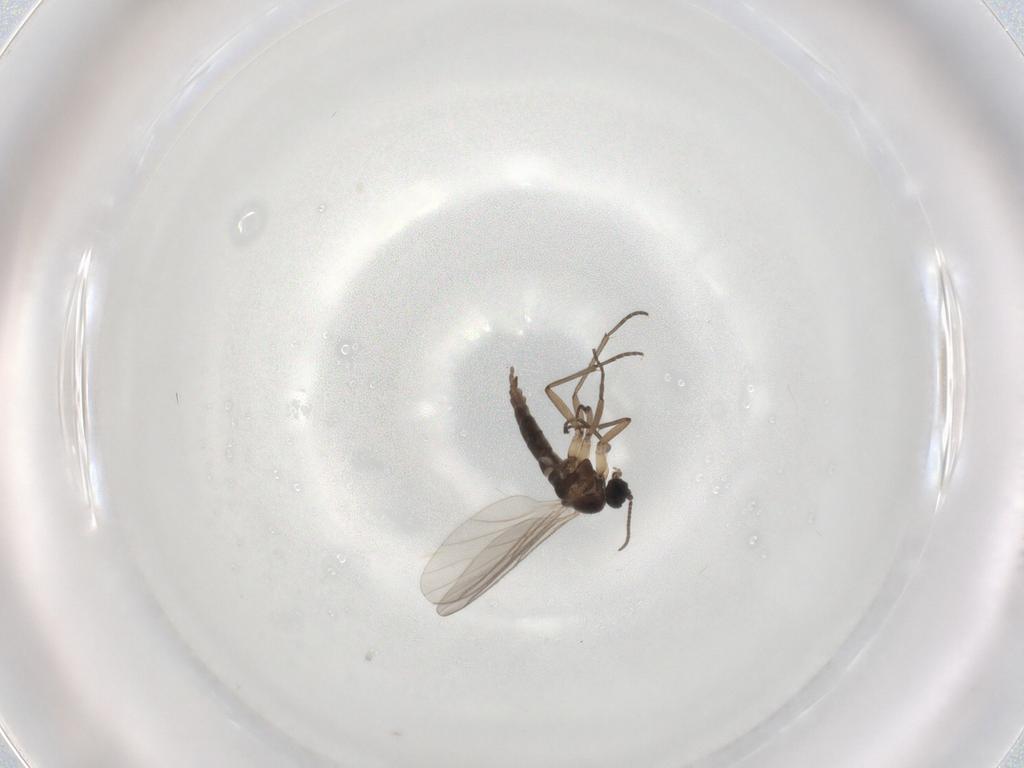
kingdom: Animalia
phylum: Arthropoda
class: Insecta
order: Diptera
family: Sciaridae
